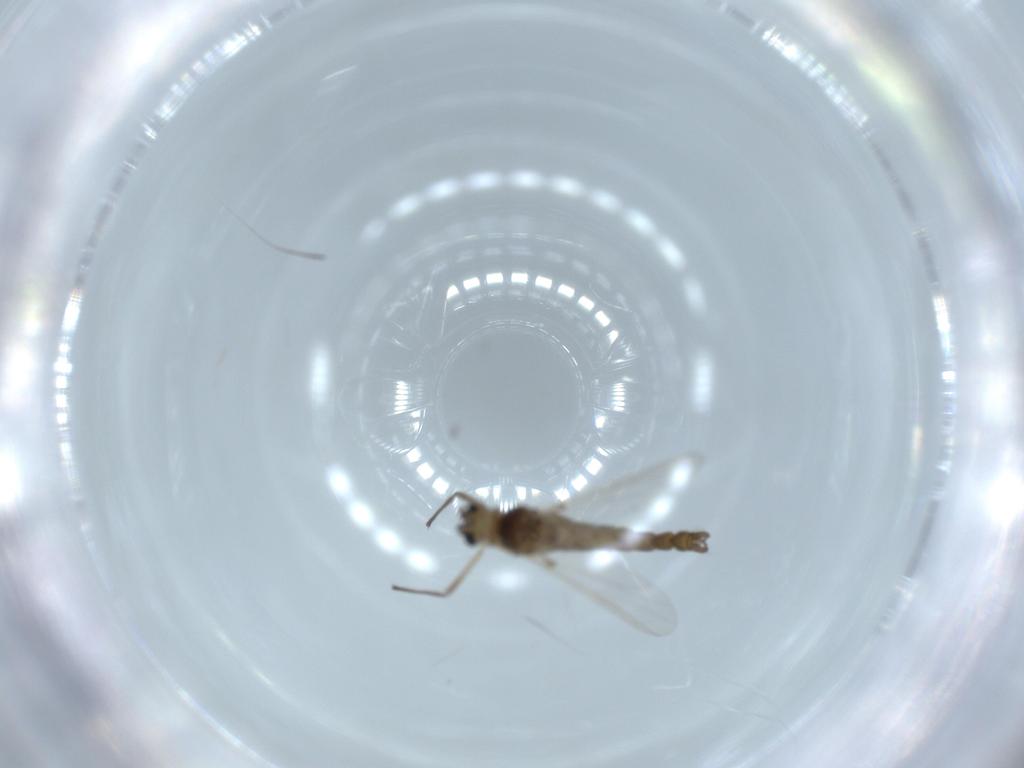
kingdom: Animalia
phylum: Arthropoda
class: Insecta
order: Diptera
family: Chironomidae
